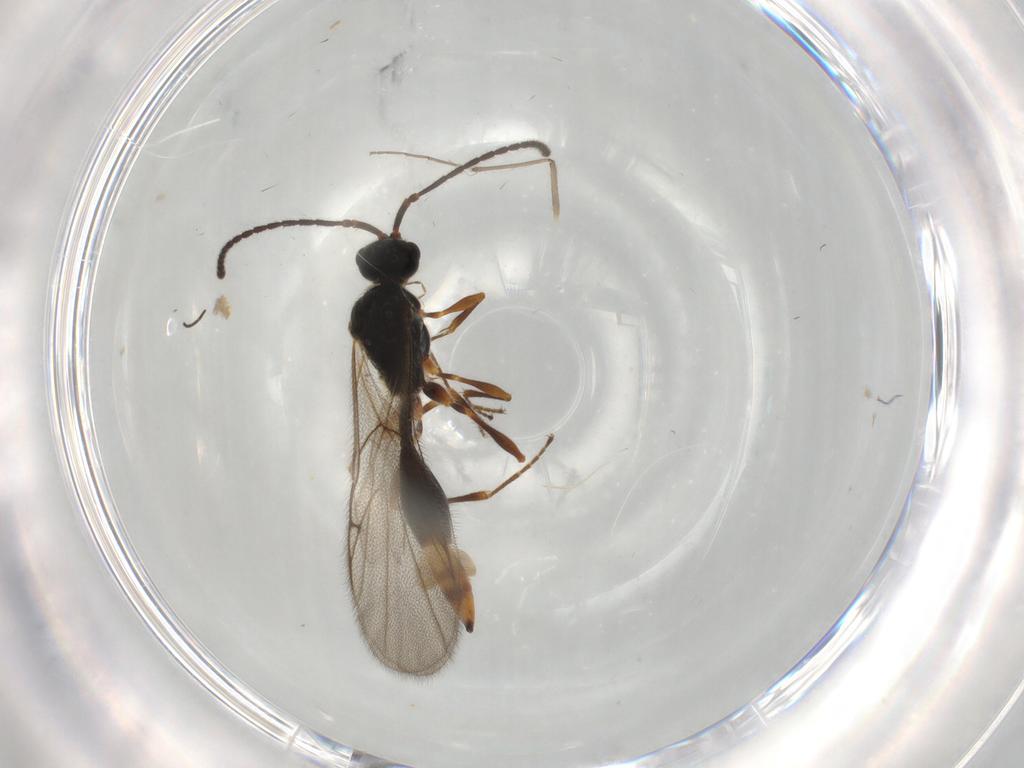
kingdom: Animalia
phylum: Arthropoda
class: Insecta
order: Hymenoptera
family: Diapriidae
